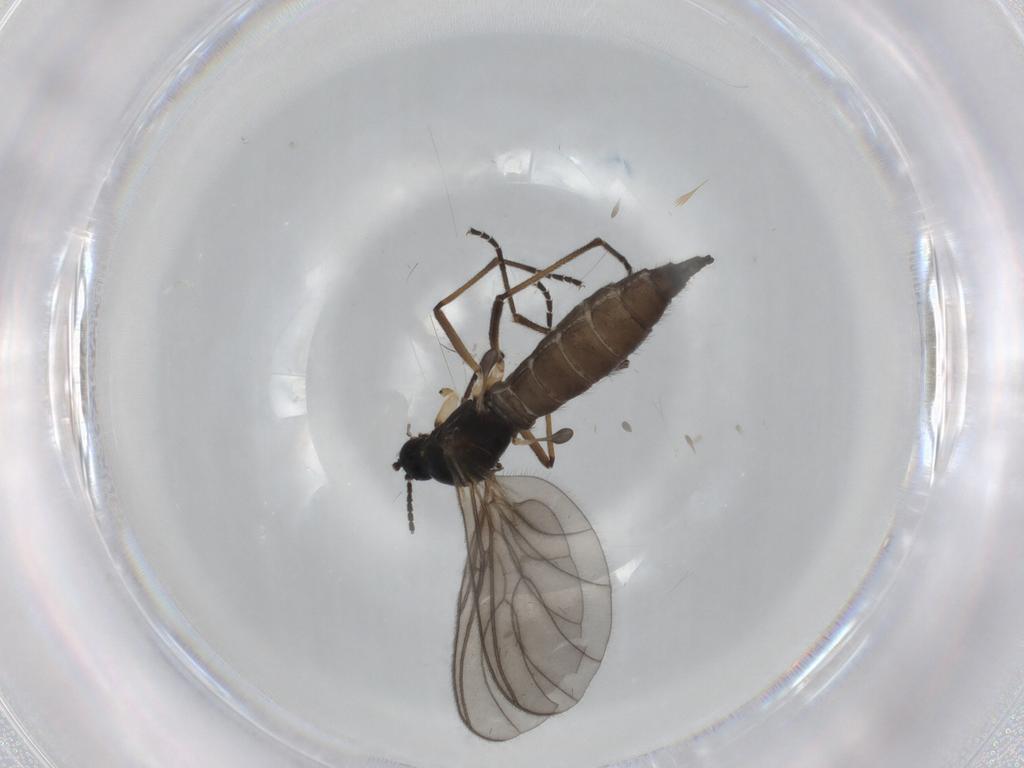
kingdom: Animalia
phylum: Arthropoda
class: Insecta
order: Diptera
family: Sciaridae
